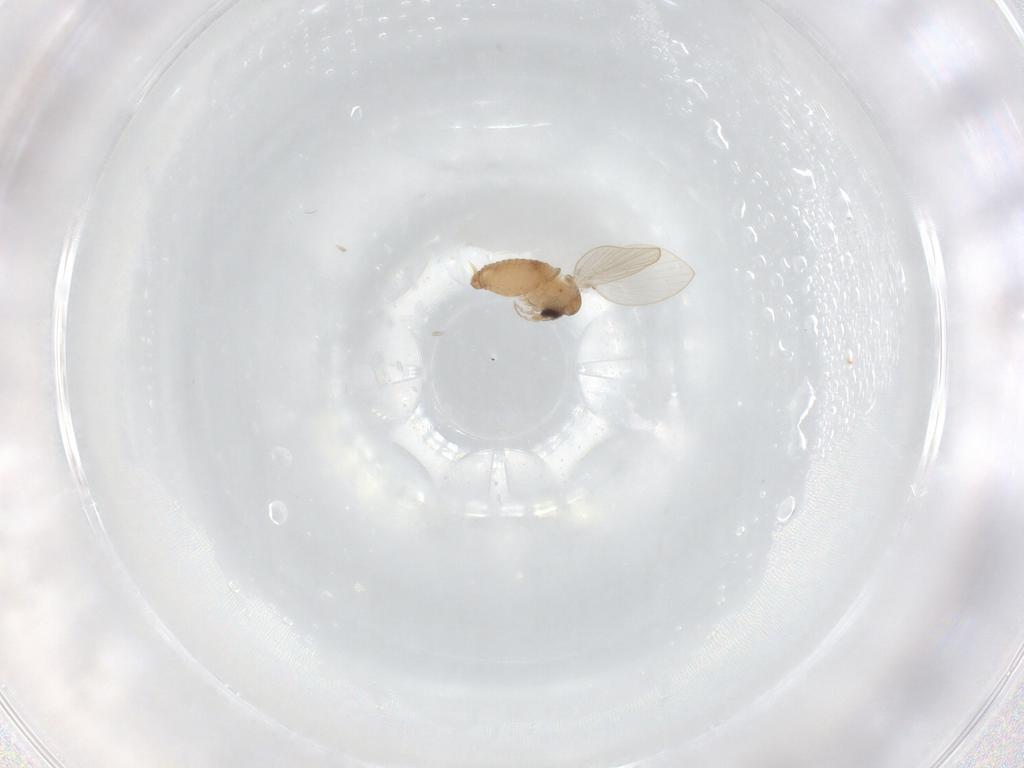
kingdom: Animalia
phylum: Arthropoda
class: Insecta
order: Diptera
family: Psychodidae
